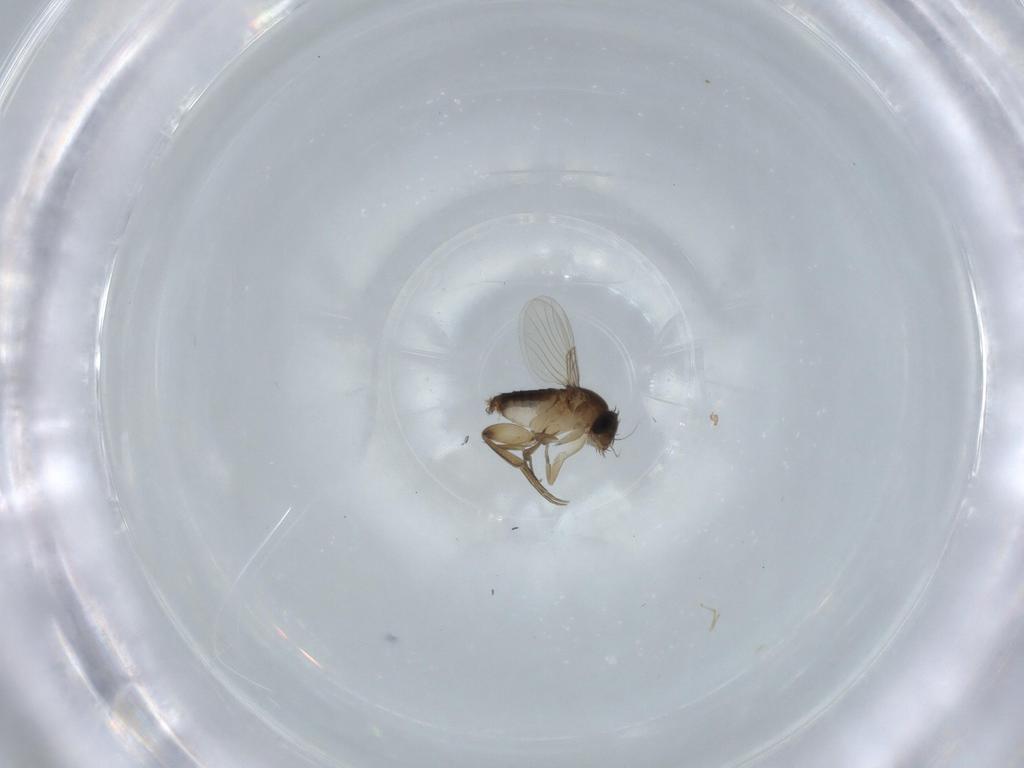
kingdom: Animalia
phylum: Arthropoda
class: Insecta
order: Diptera
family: Phoridae
